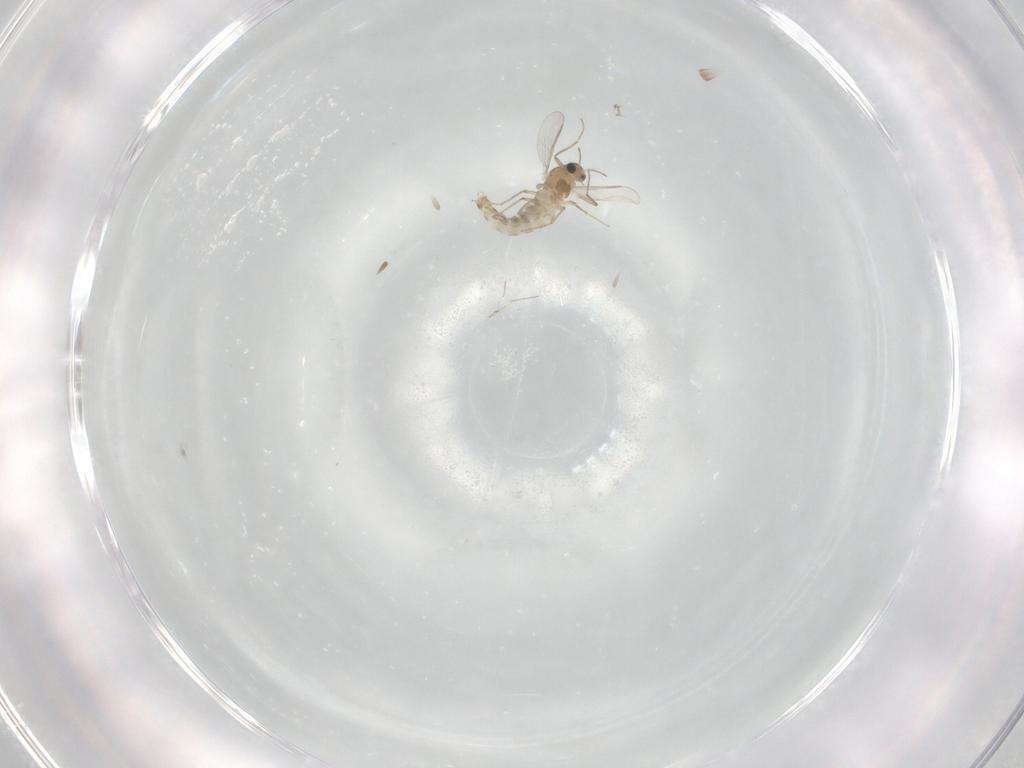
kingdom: Animalia
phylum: Arthropoda
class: Insecta
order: Diptera
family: Chironomidae
